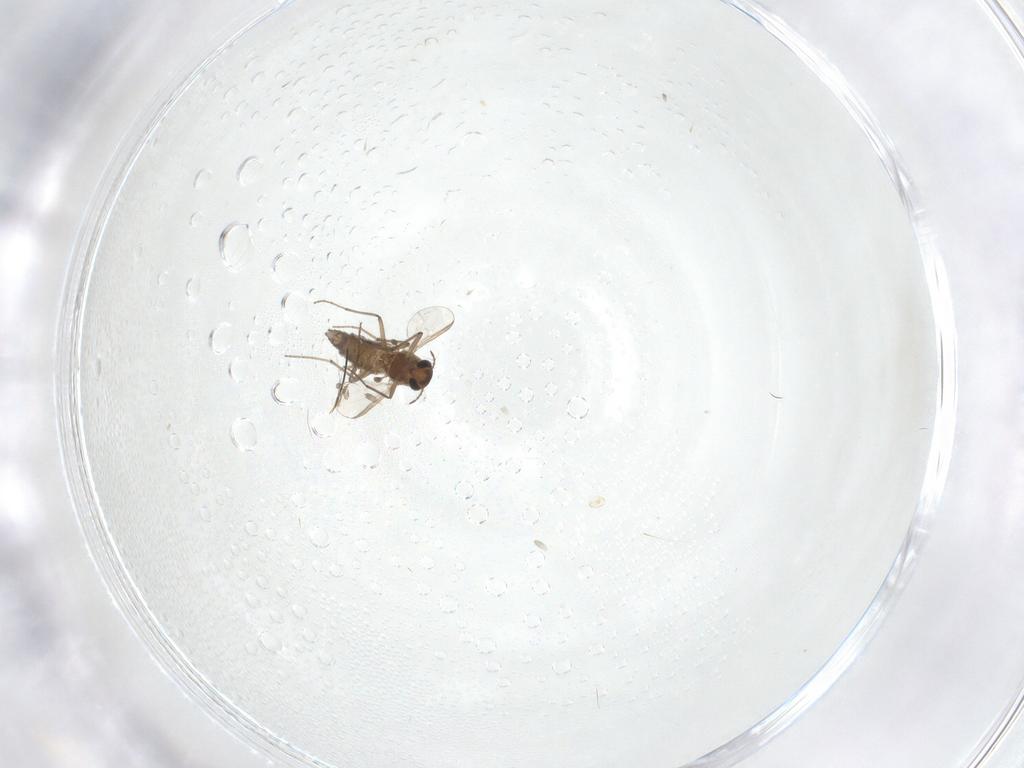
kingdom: Animalia
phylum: Arthropoda
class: Insecta
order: Diptera
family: Chironomidae
